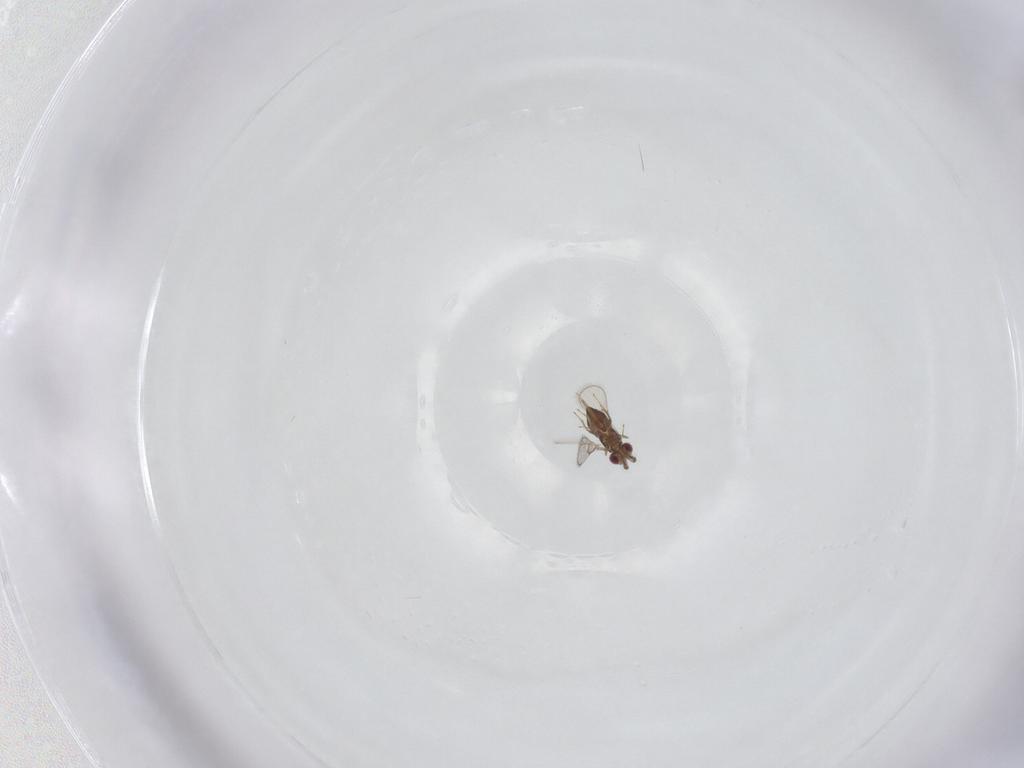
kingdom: Animalia
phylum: Arthropoda
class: Insecta
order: Hymenoptera
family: Trichogrammatidae
